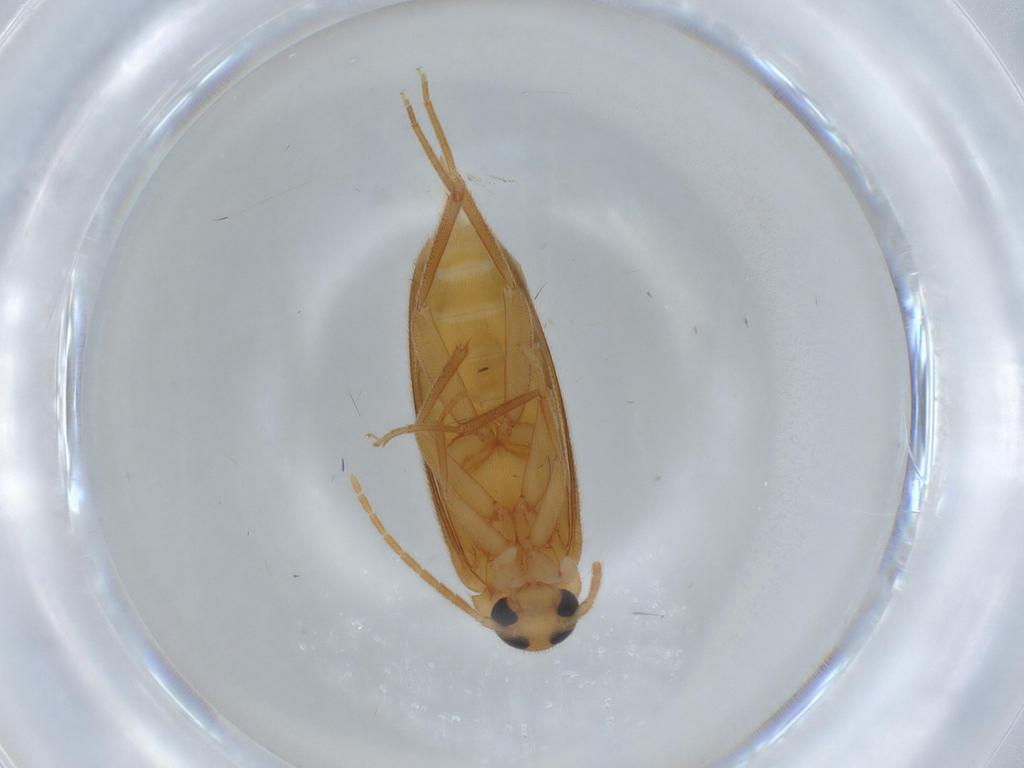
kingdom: Animalia
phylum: Arthropoda
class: Insecta
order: Coleoptera
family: Scraptiidae
